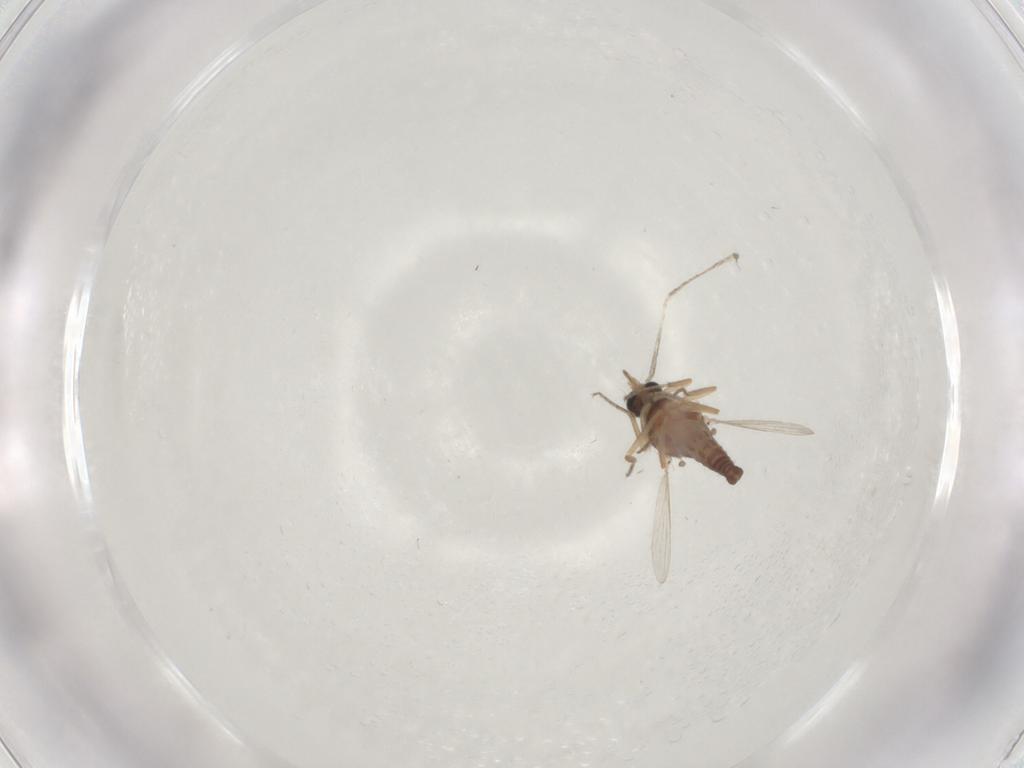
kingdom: Animalia
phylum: Arthropoda
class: Insecta
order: Diptera
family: Ceratopogonidae
